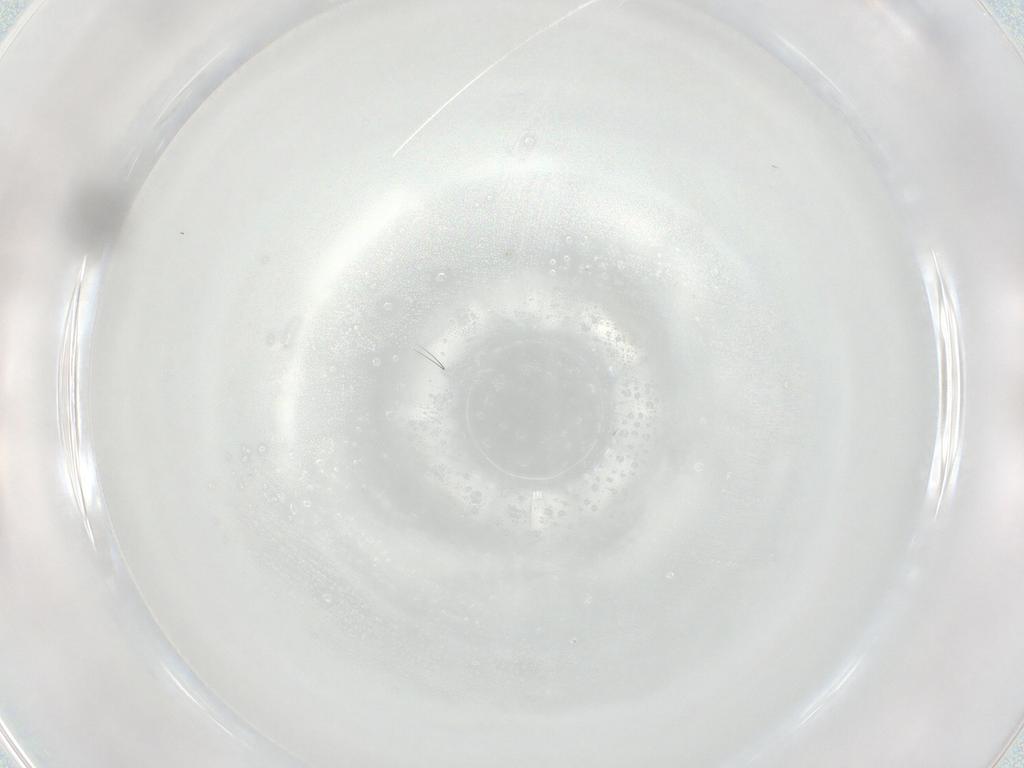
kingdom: Animalia
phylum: Arthropoda
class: Insecta
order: Hymenoptera
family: Scelionidae
